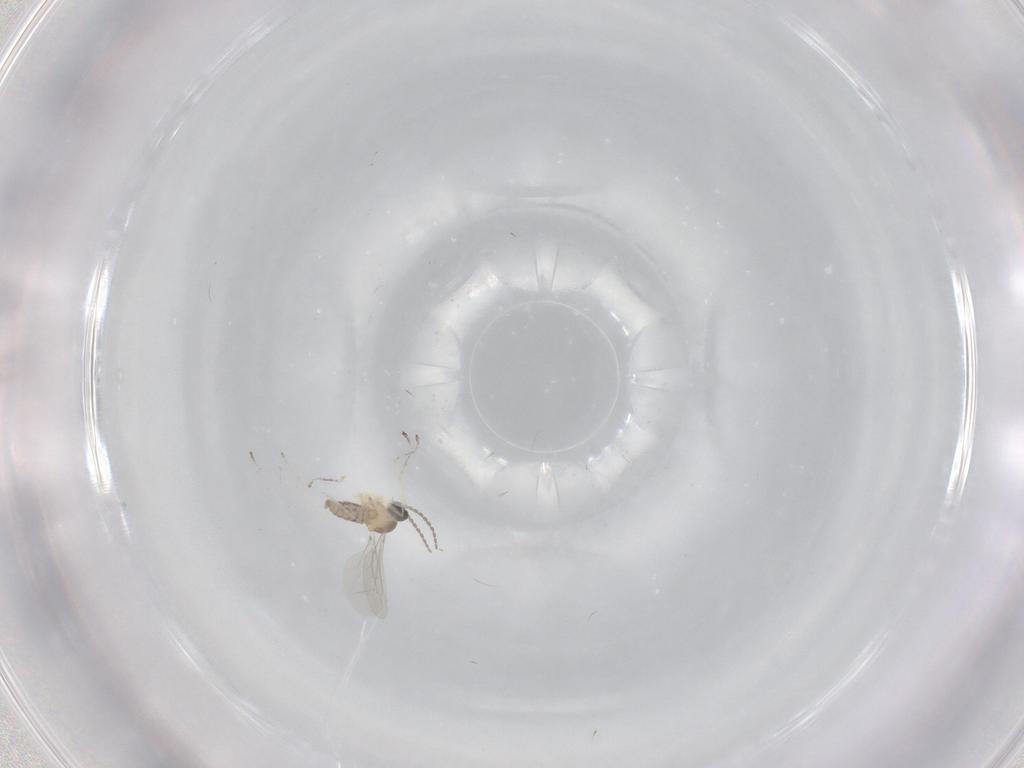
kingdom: Animalia
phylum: Arthropoda
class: Insecta
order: Diptera
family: Cecidomyiidae
